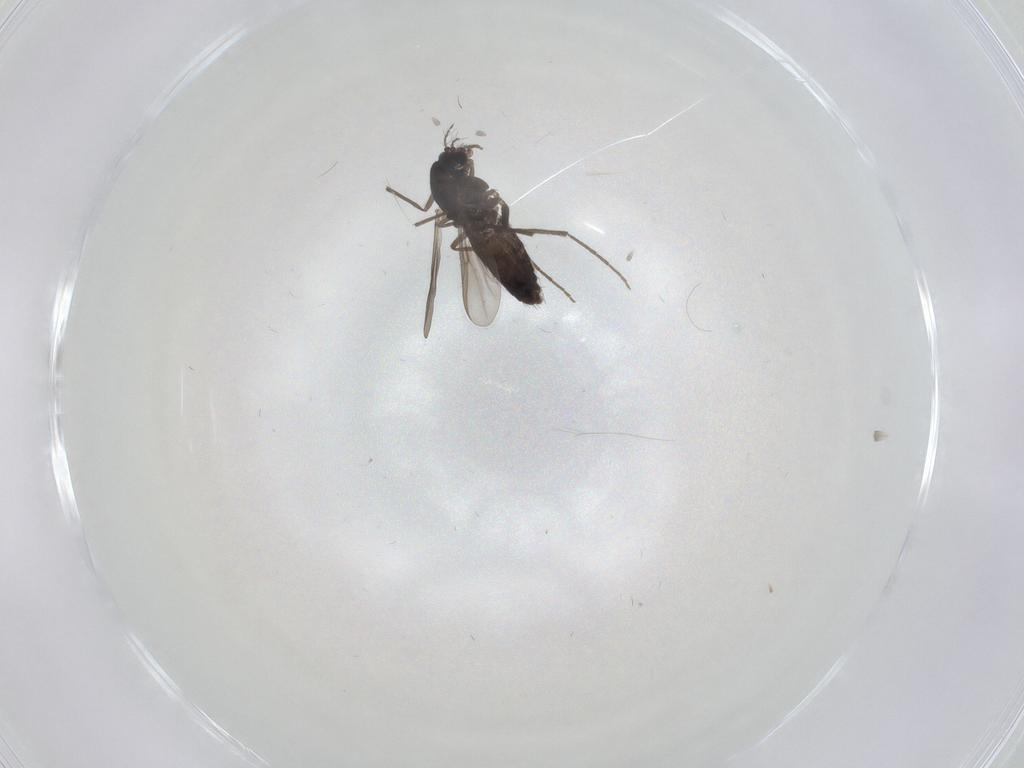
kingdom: Animalia
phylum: Arthropoda
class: Insecta
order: Diptera
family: Chironomidae
